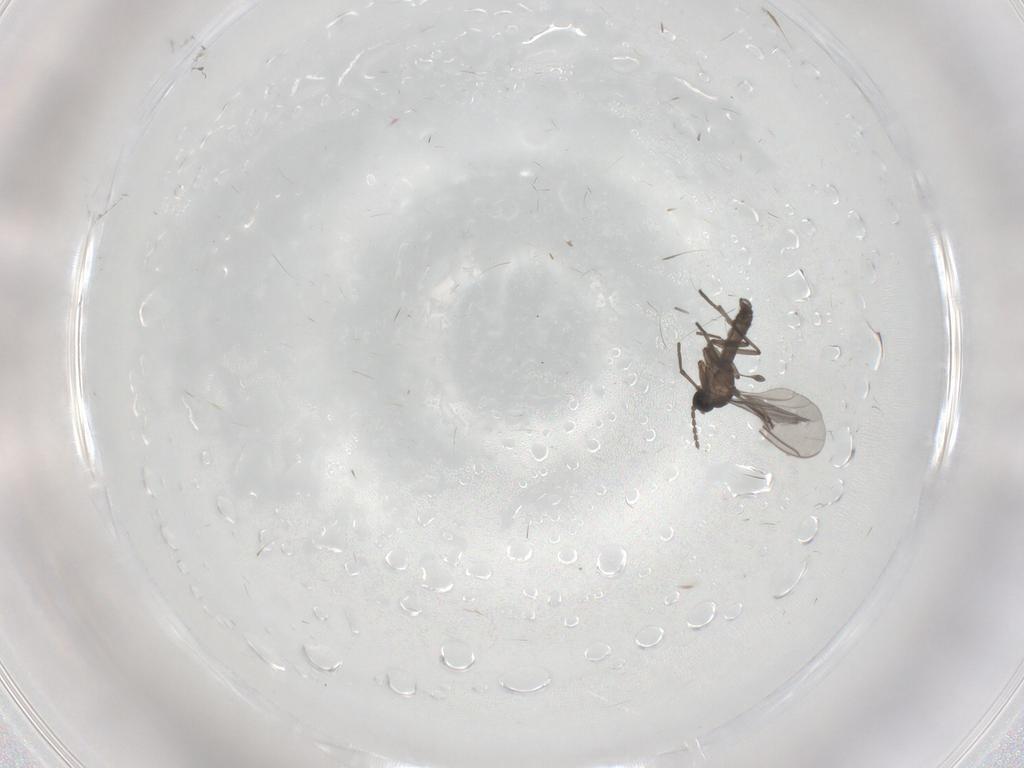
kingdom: Animalia
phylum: Arthropoda
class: Insecta
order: Diptera
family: Sciaridae
